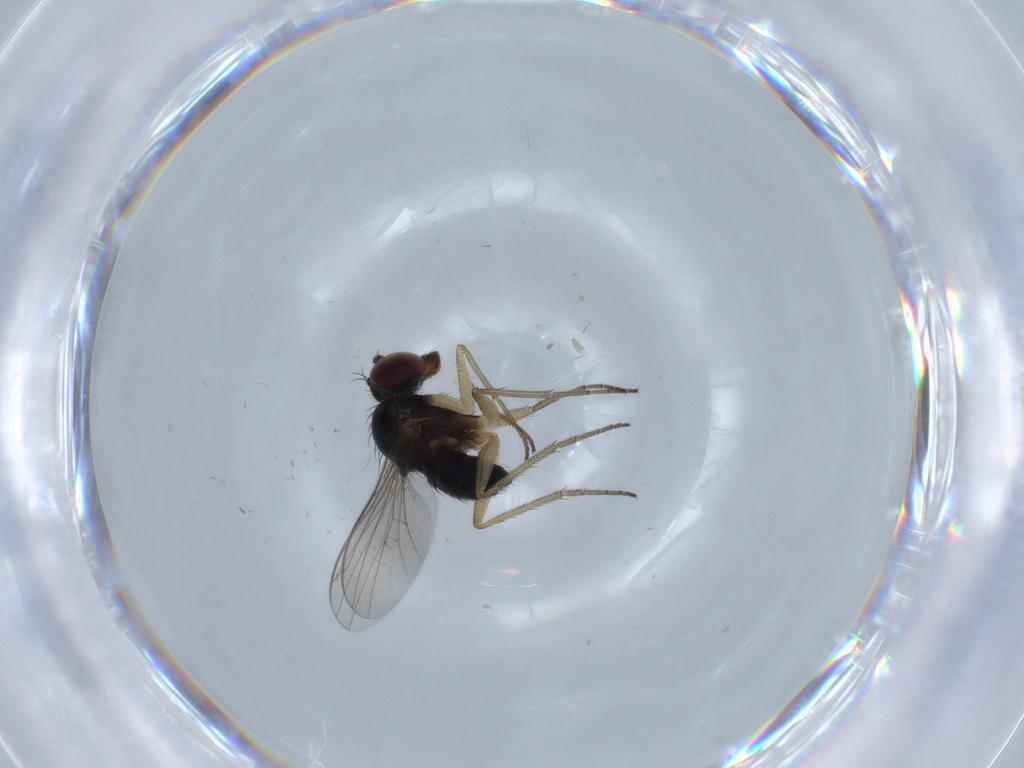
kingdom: Animalia
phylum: Arthropoda
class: Insecta
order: Diptera
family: Dolichopodidae
